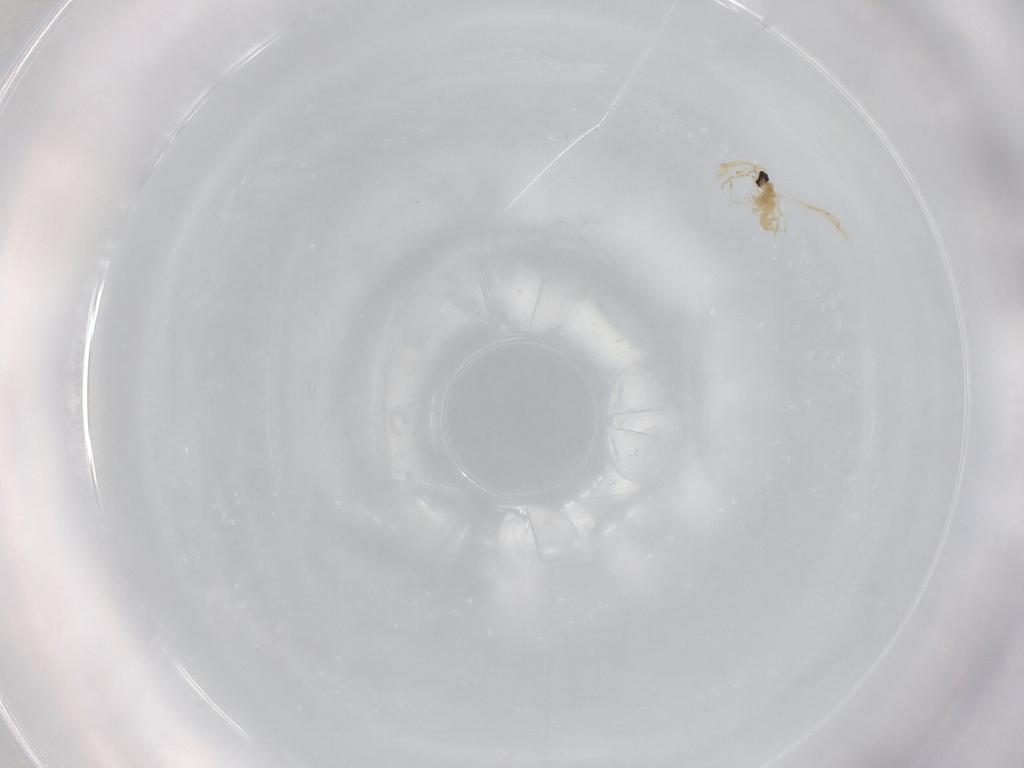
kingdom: Animalia
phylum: Arthropoda
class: Insecta
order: Diptera
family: Cecidomyiidae
